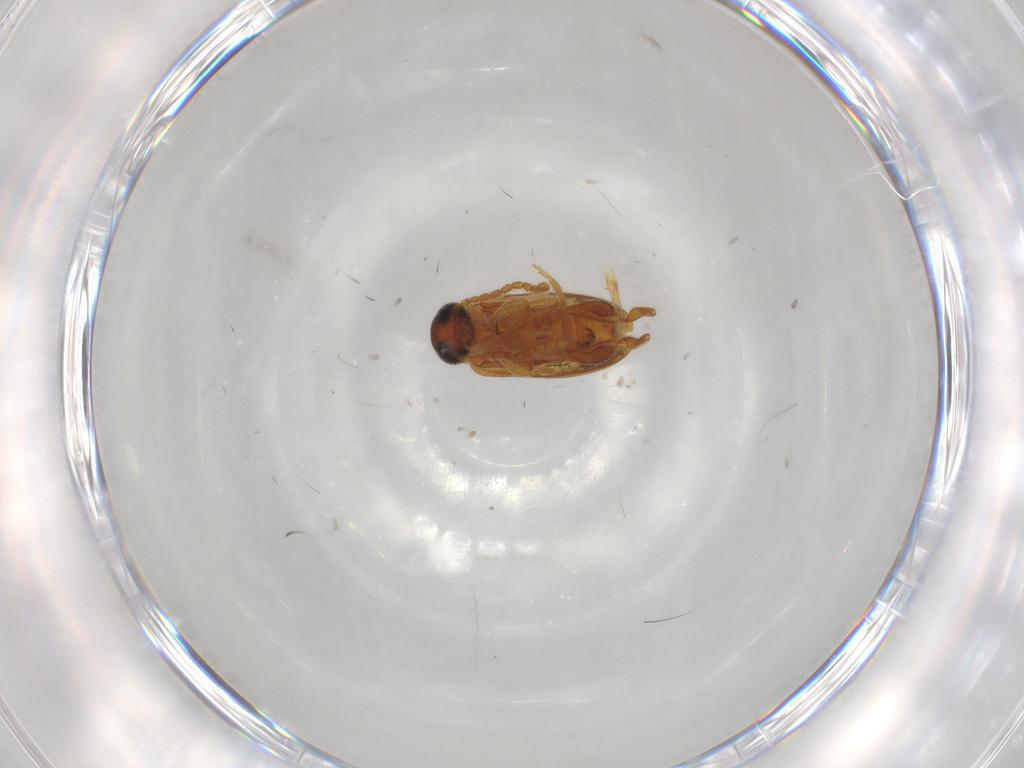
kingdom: Animalia
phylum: Arthropoda
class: Insecta
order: Coleoptera
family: Aderidae
